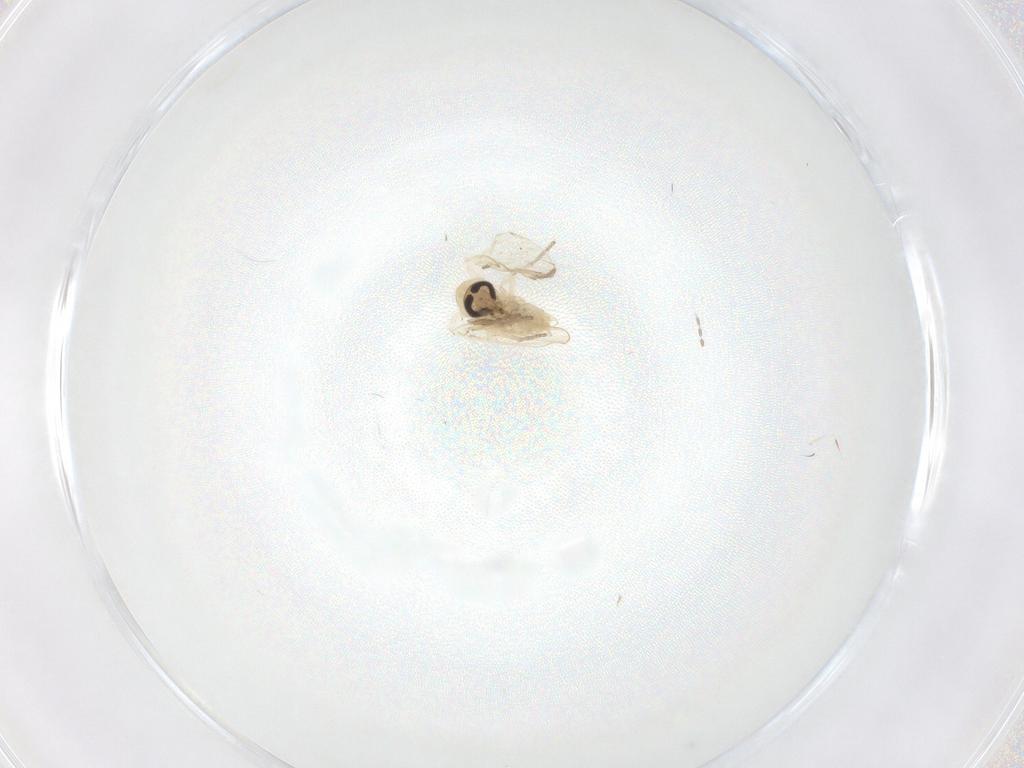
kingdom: Animalia
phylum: Arthropoda
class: Insecta
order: Diptera
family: Psychodidae
